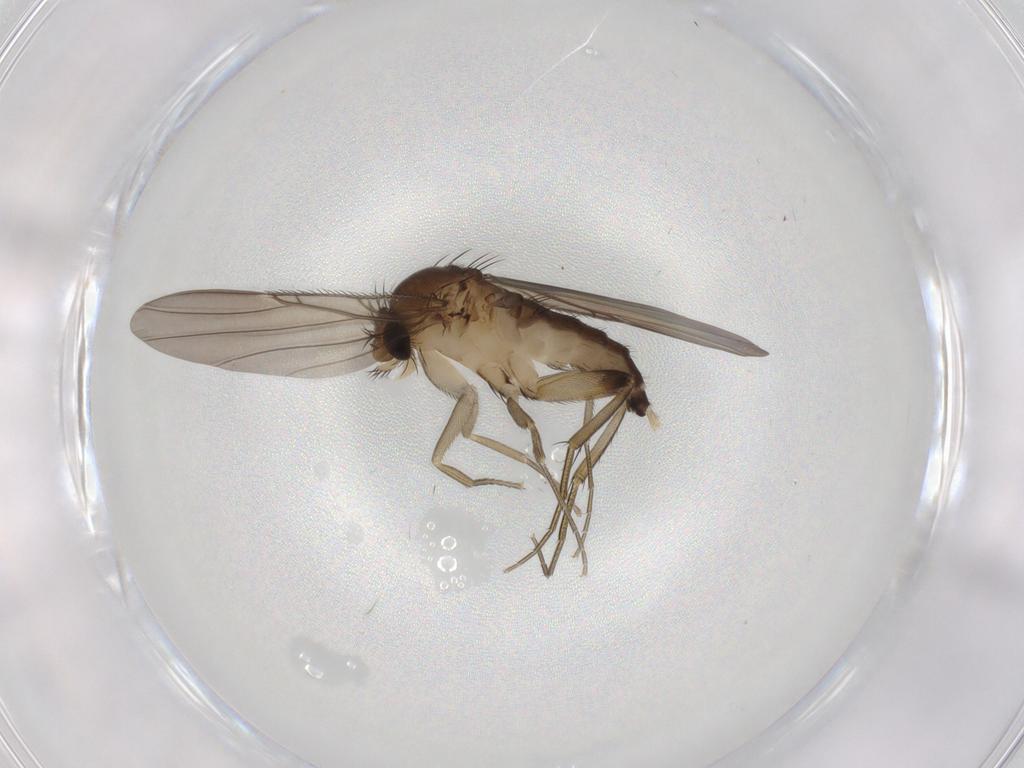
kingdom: Animalia
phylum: Arthropoda
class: Insecta
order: Diptera
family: Phoridae
